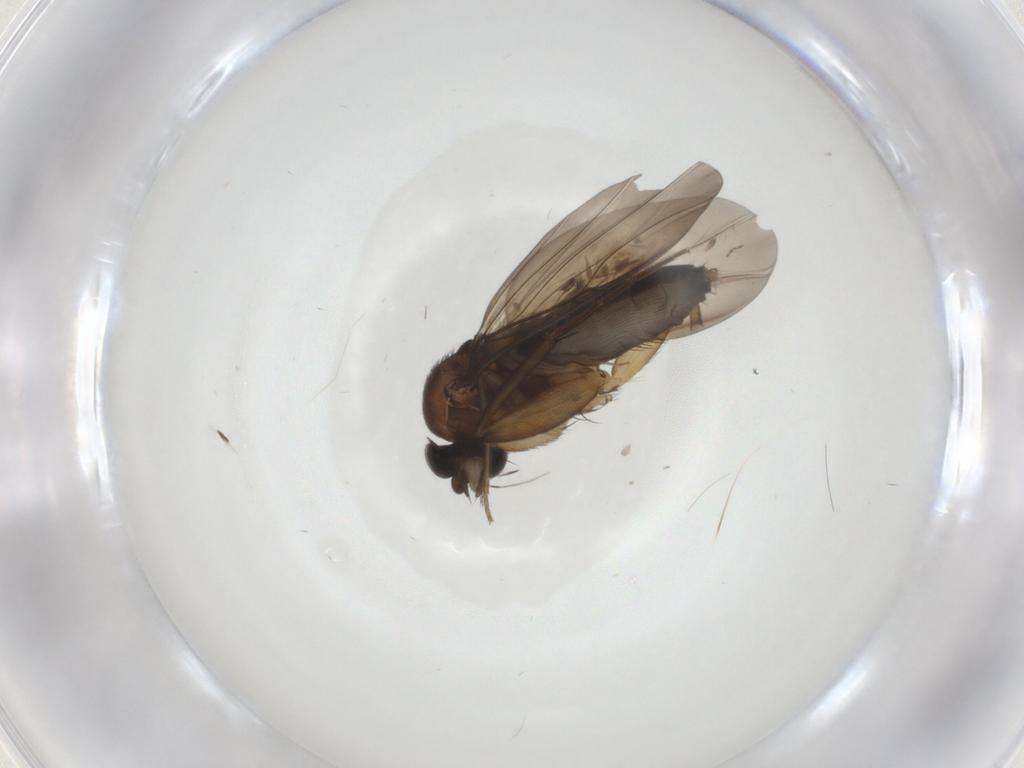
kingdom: Animalia
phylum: Arthropoda
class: Insecta
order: Diptera
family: Phoridae
